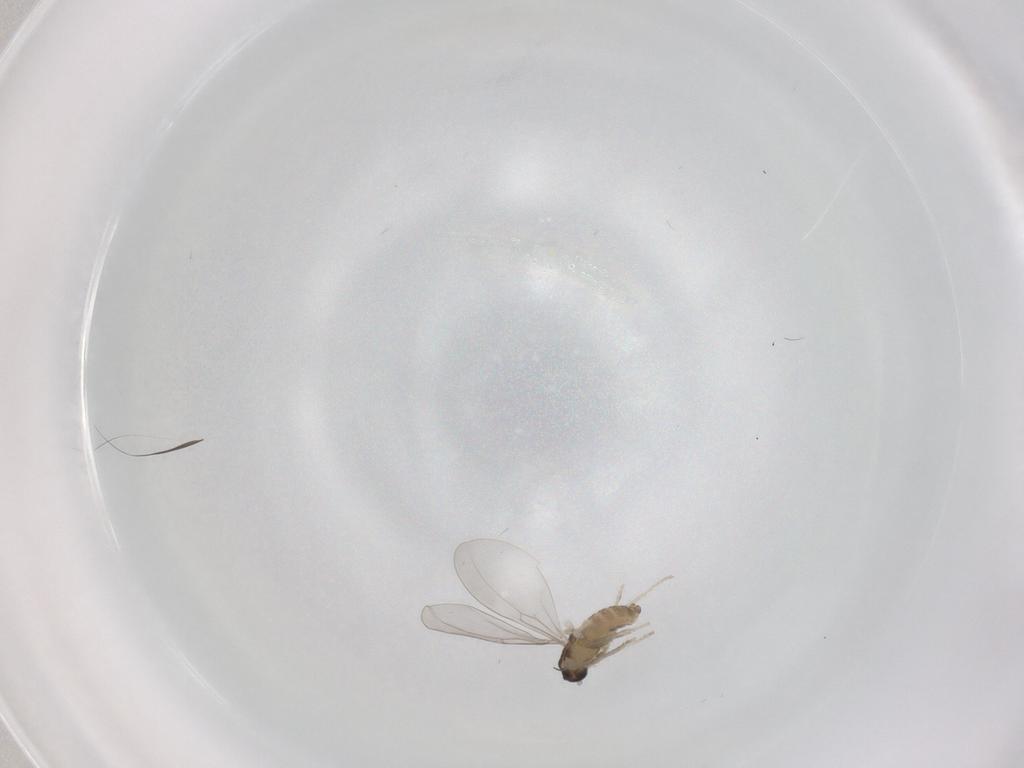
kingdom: Animalia
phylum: Arthropoda
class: Insecta
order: Diptera
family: Cecidomyiidae
